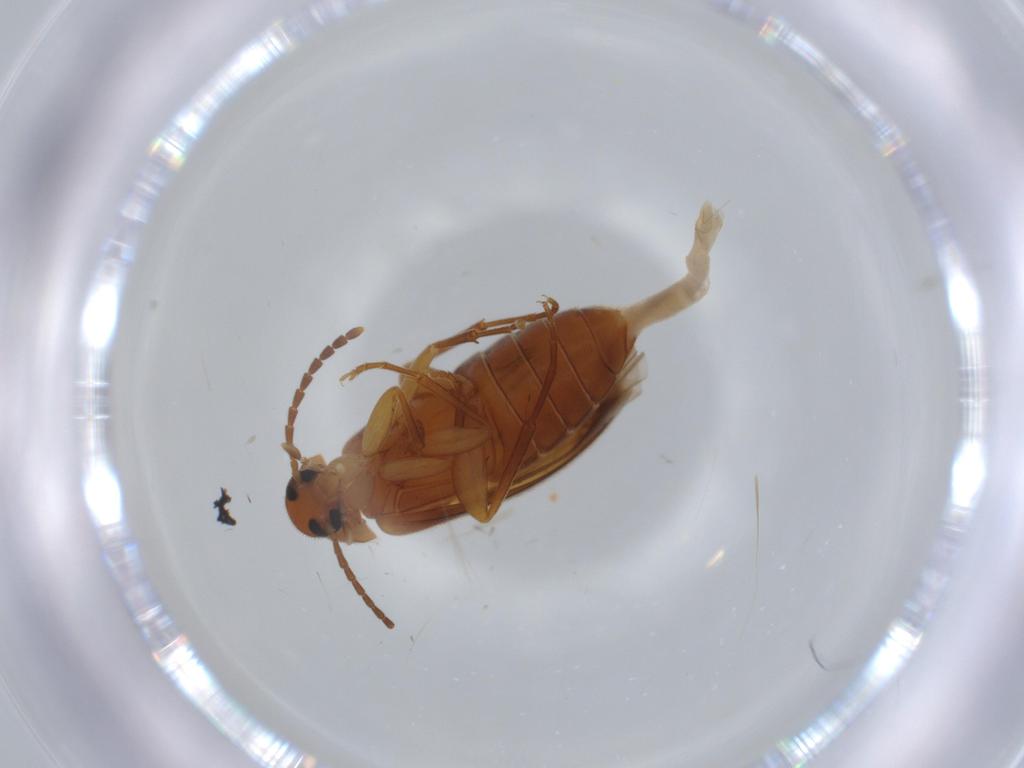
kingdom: Animalia
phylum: Arthropoda
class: Insecta
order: Coleoptera
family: Scraptiidae
